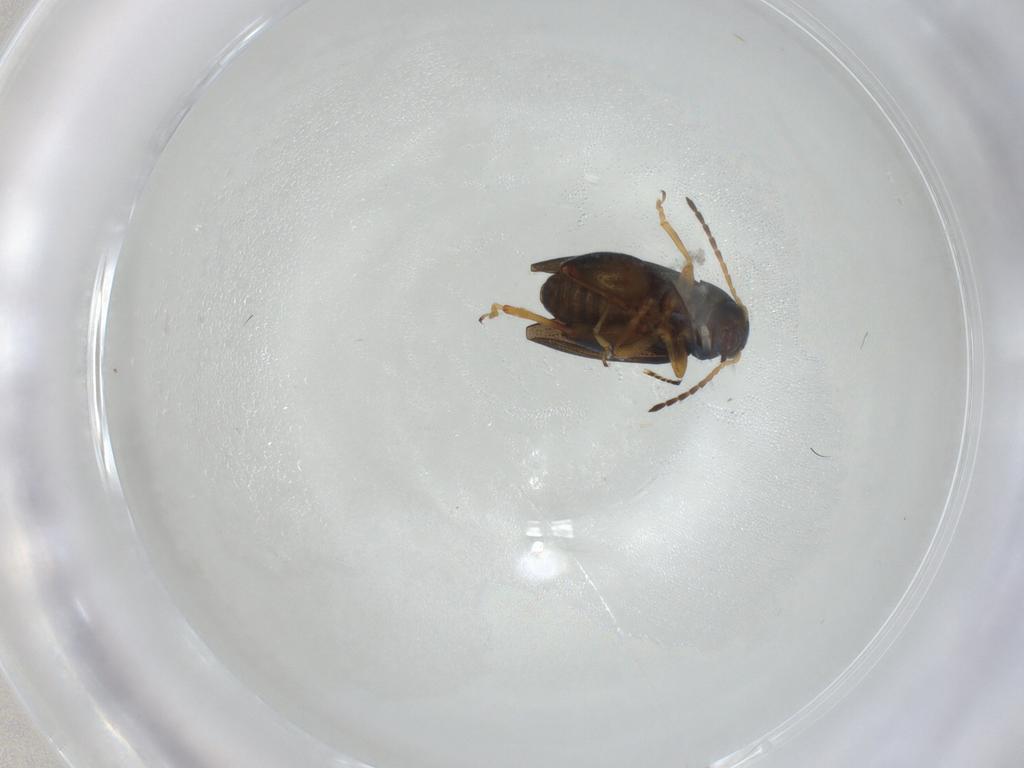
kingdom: Animalia
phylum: Arthropoda
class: Insecta
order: Coleoptera
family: Chrysomelidae
